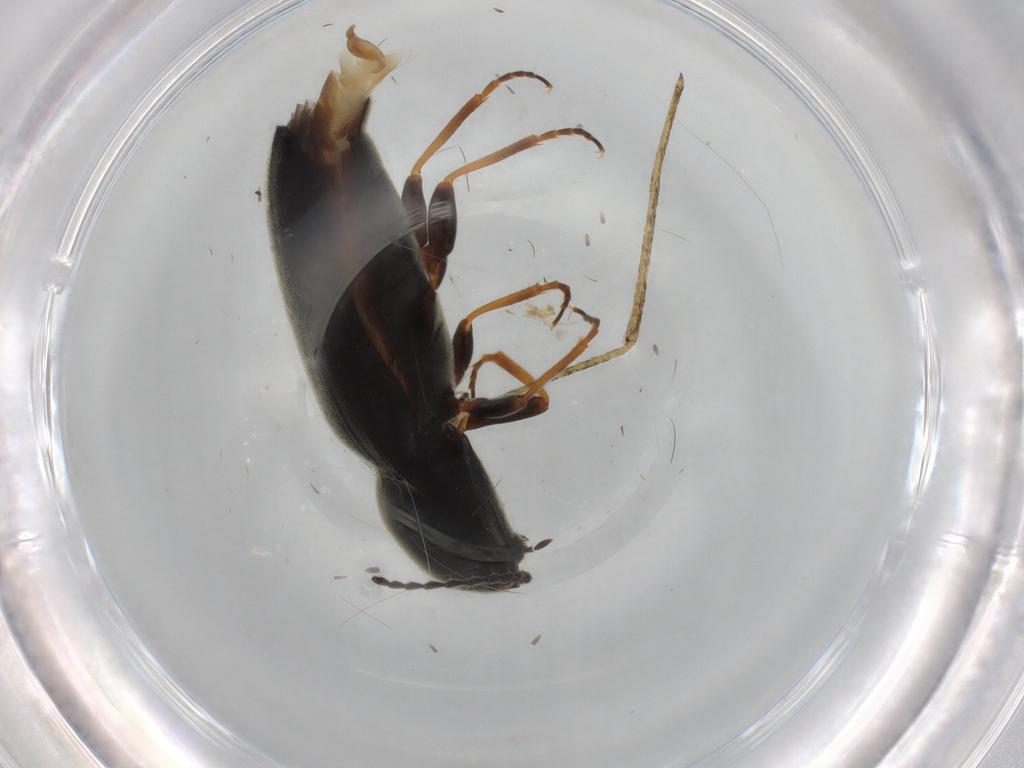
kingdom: Animalia
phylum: Arthropoda
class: Insecta
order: Coleoptera
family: Elateridae
